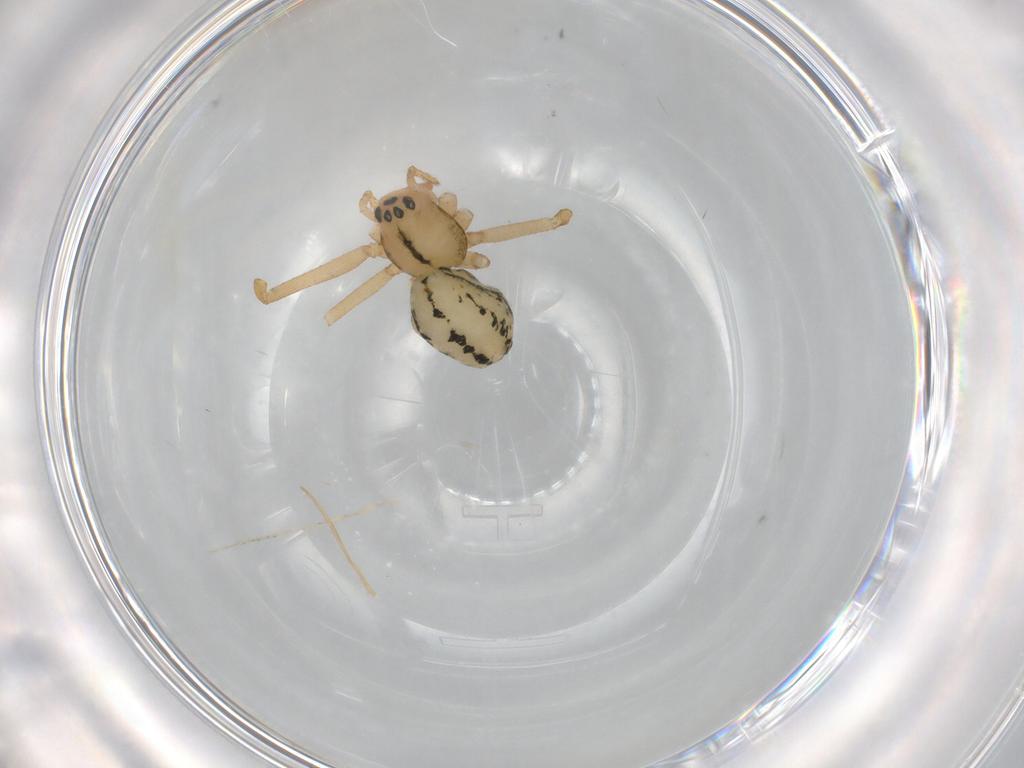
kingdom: Animalia
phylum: Arthropoda
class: Arachnida
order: Araneae
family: Linyphiidae
